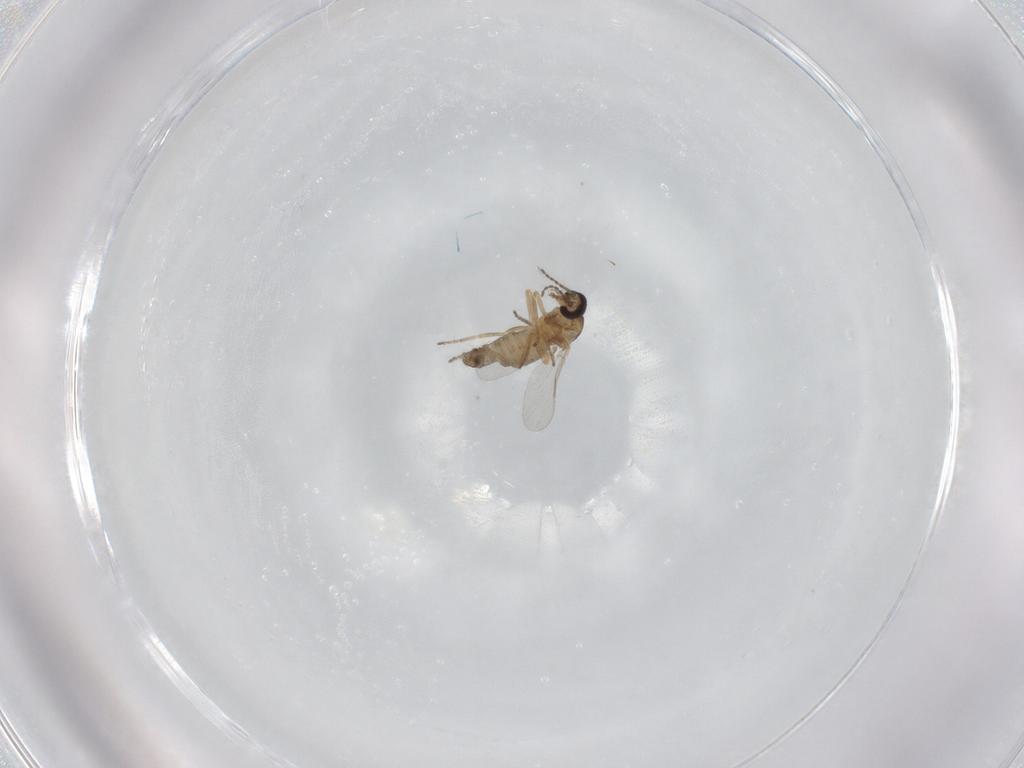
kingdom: Animalia
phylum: Arthropoda
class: Insecta
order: Diptera
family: Ceratopogonidae
